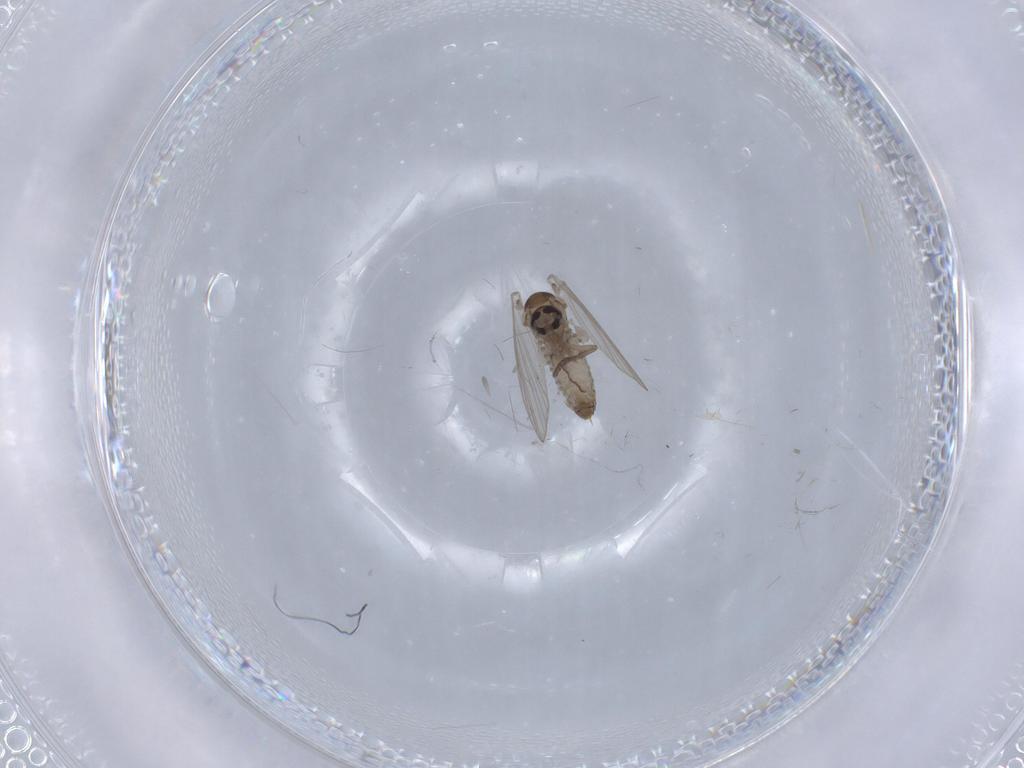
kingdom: Animalia
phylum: Arthropoda
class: Insecta
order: Diptera
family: Psychodidae
